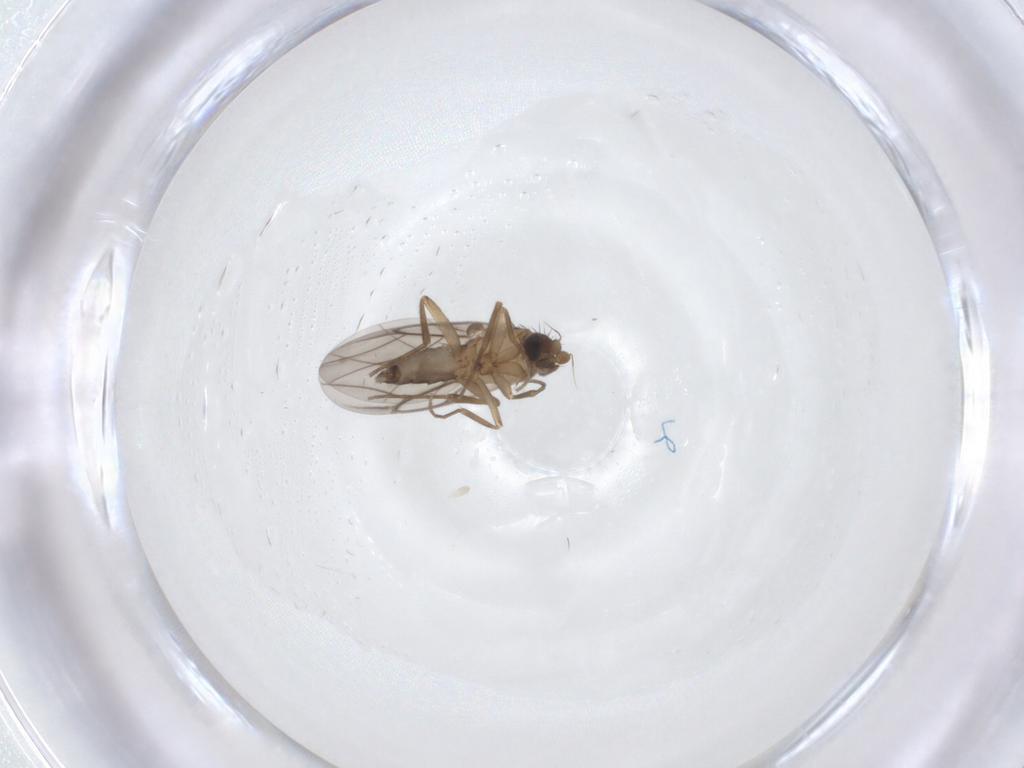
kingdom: Animalia
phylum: Arthropoda
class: Insecta
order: Diptera
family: Phoridae
